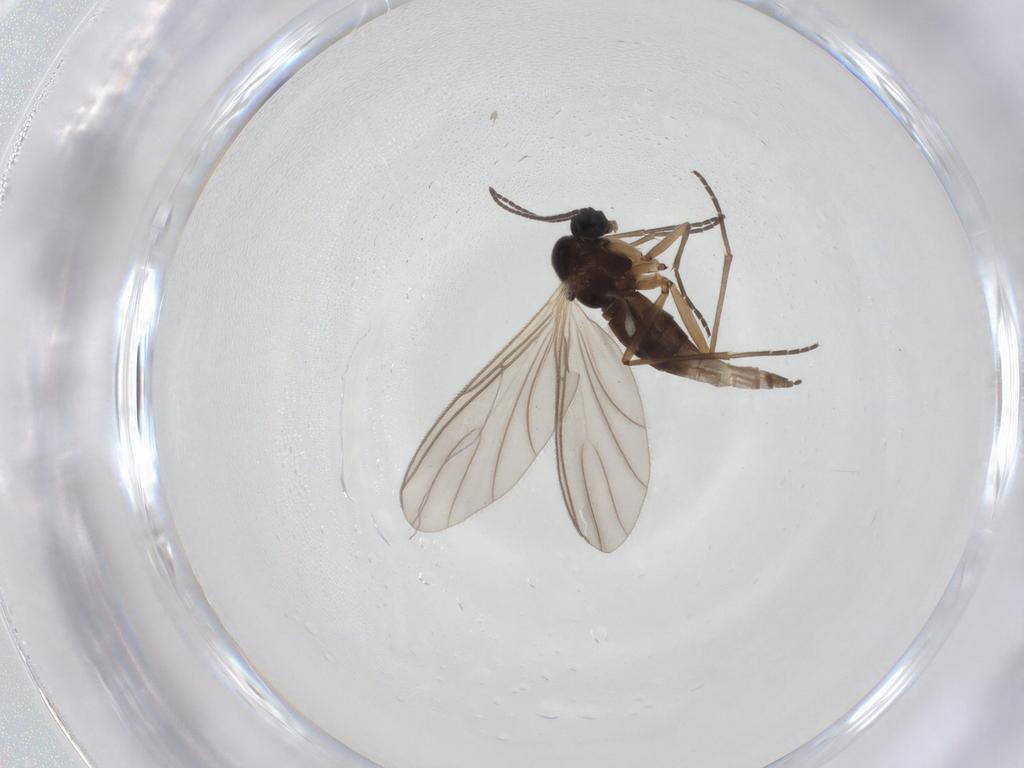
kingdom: Animalia
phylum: Arthropoda
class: Insecta
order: Diptera
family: Sciaridae
